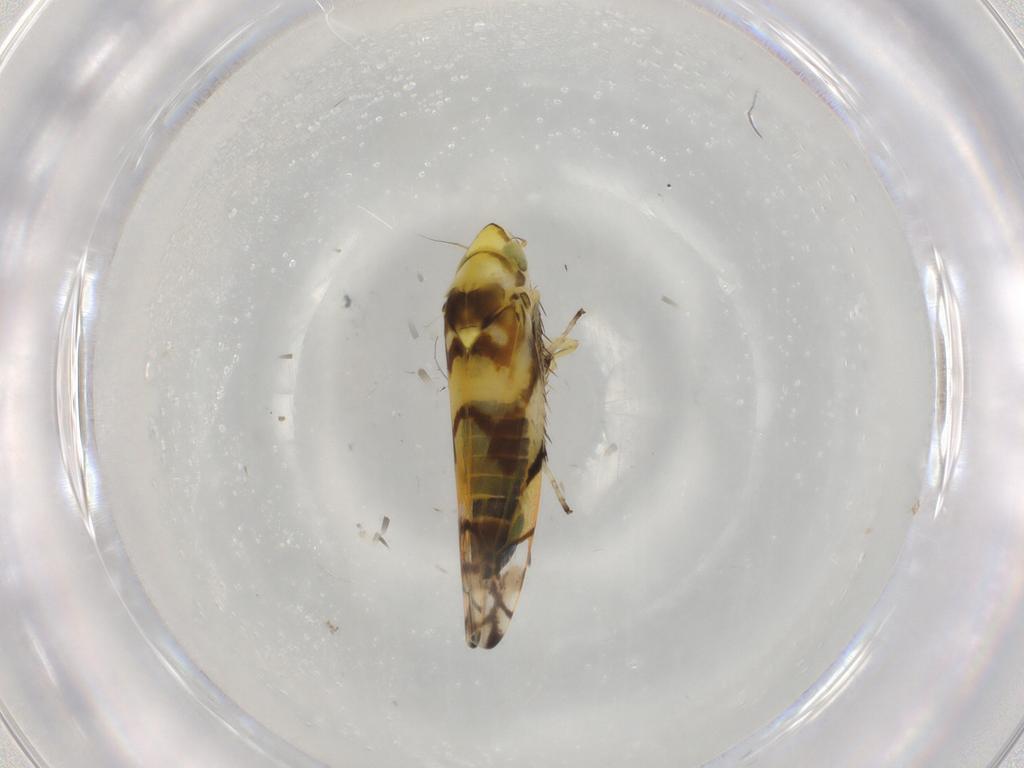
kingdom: Animalia
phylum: Arthropoda
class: Insecta
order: Hemiptera
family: Cicadellidae
